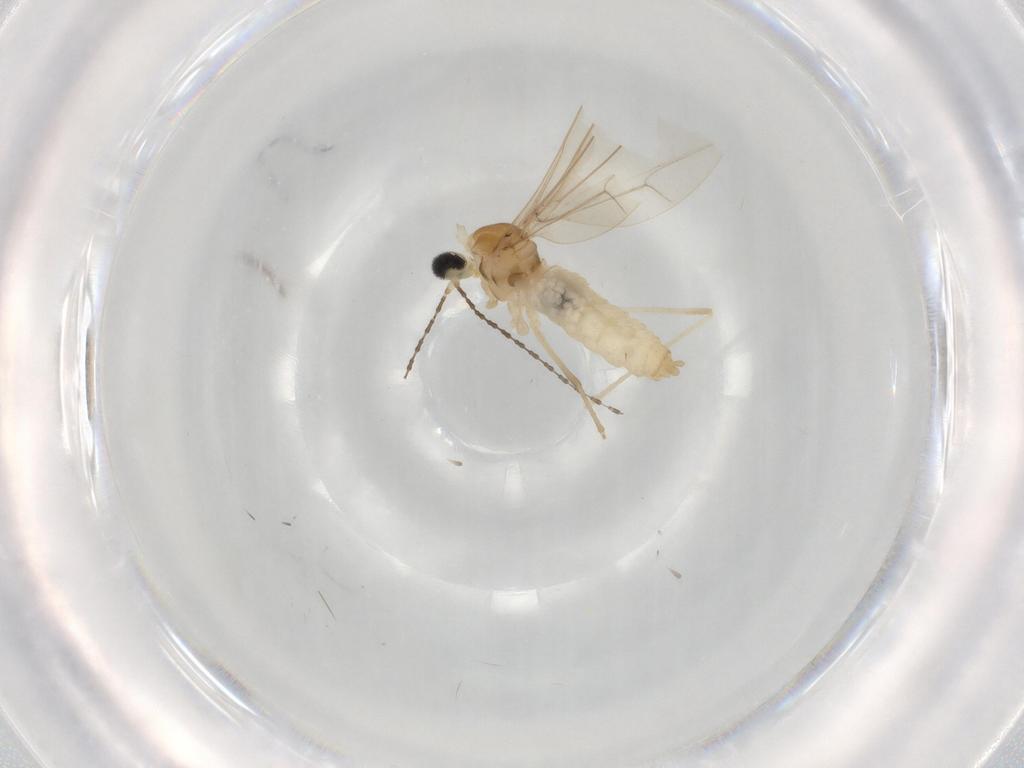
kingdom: Animalia
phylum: Arthropoda
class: Insecta
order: Diptera
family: Cecidomyiidae
